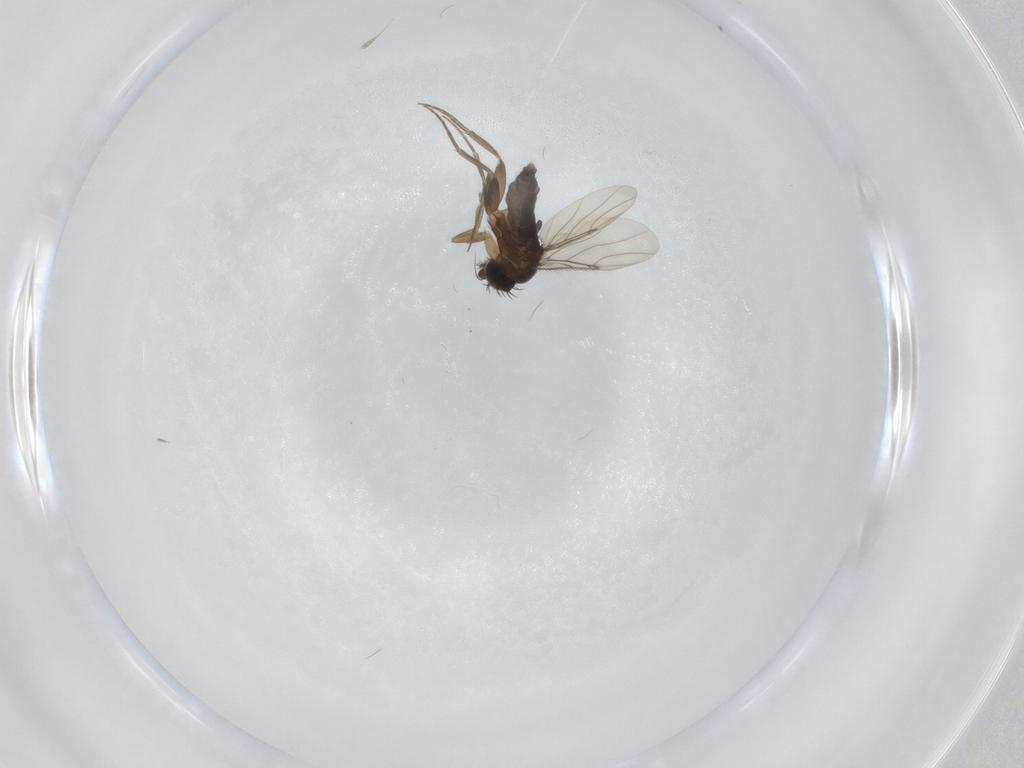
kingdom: Animalia
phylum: Arthropoda
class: Insecta
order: Diptera
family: Phoridae
